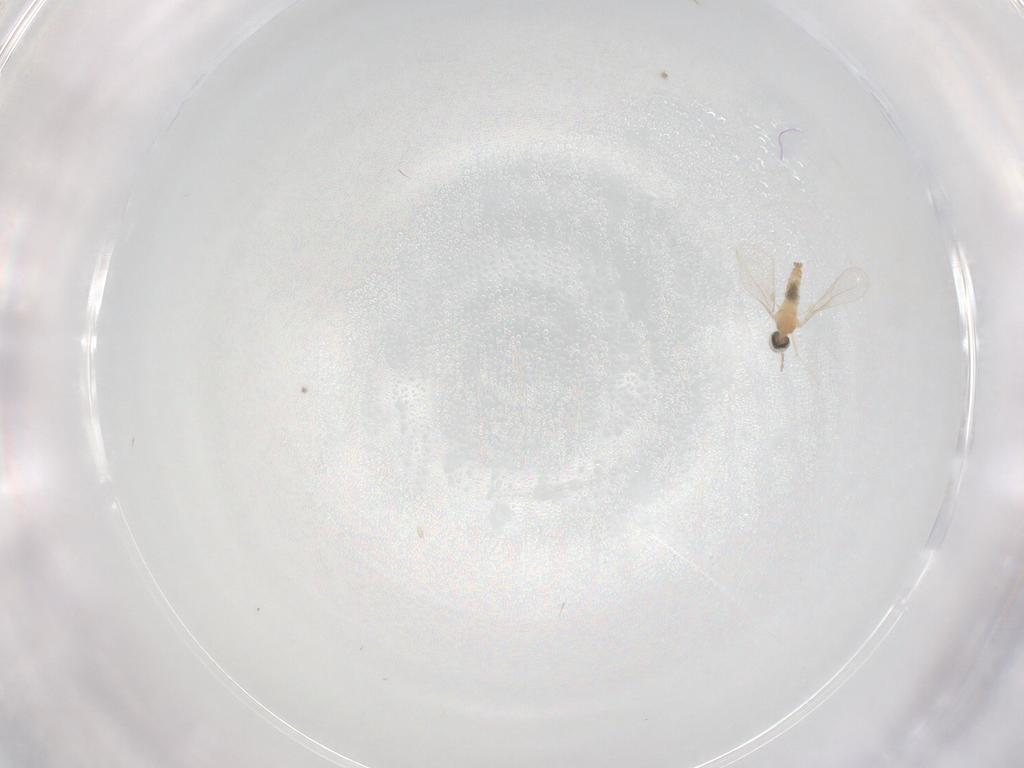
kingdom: Animalia
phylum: Arthropoda
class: Insecta
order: Diptera
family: Cecidomyiidae
